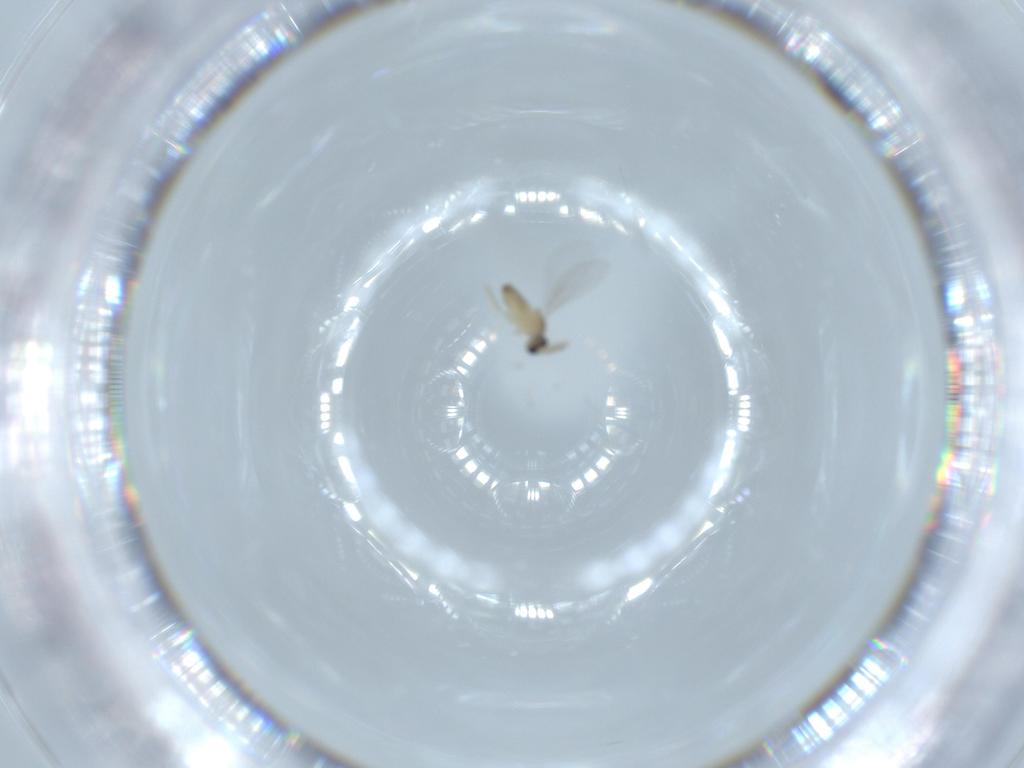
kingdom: Animalia
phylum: Arthropoda
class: Insecta
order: Diptera
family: Cecidomyiidae
